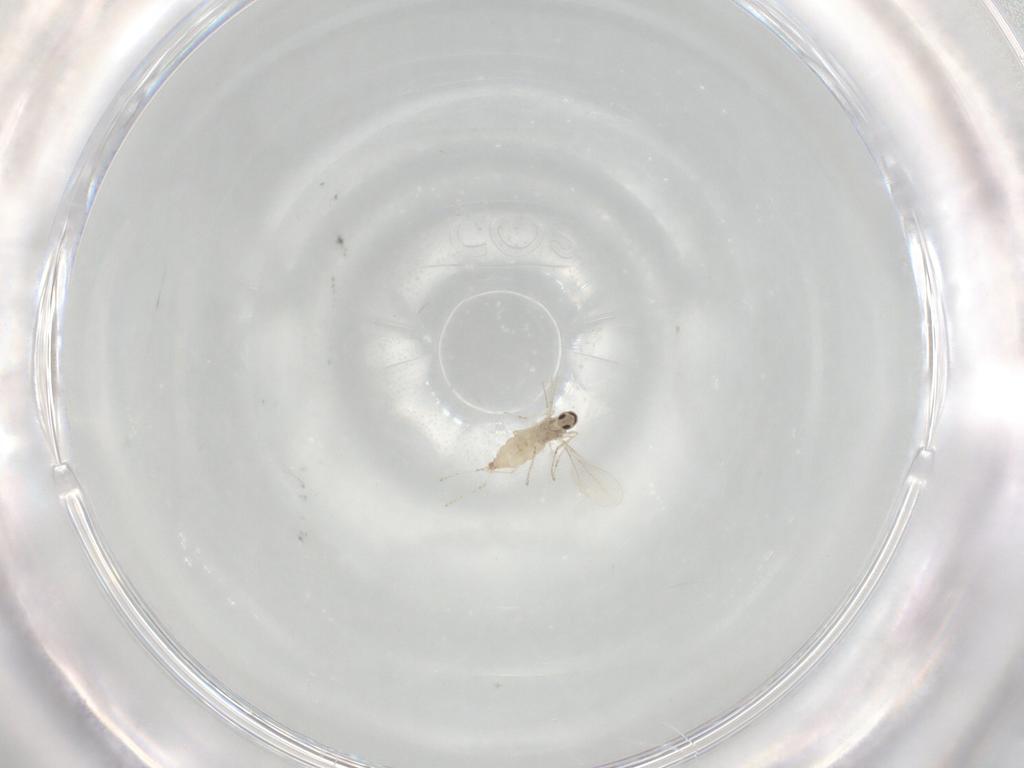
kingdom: Animalia
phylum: Arthropoda
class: Insecta
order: Diptera
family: Cecidomyiidae
